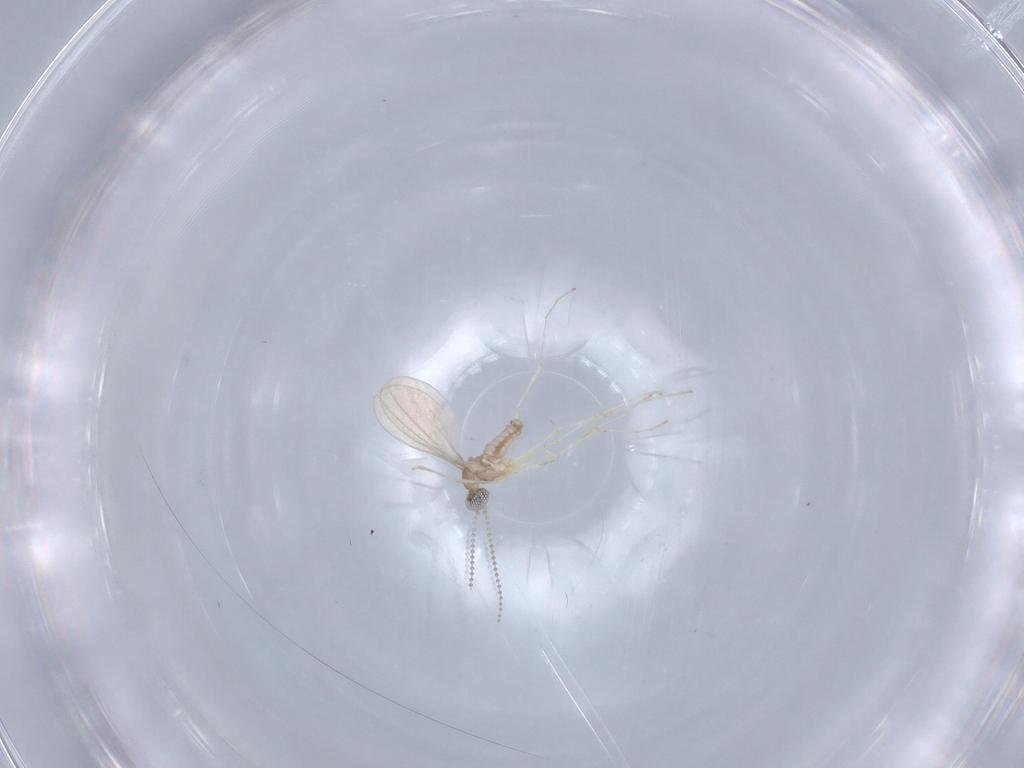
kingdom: Animalia
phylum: Arthropoda
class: Insecta
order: Diptera
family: Cecidomyiidae
